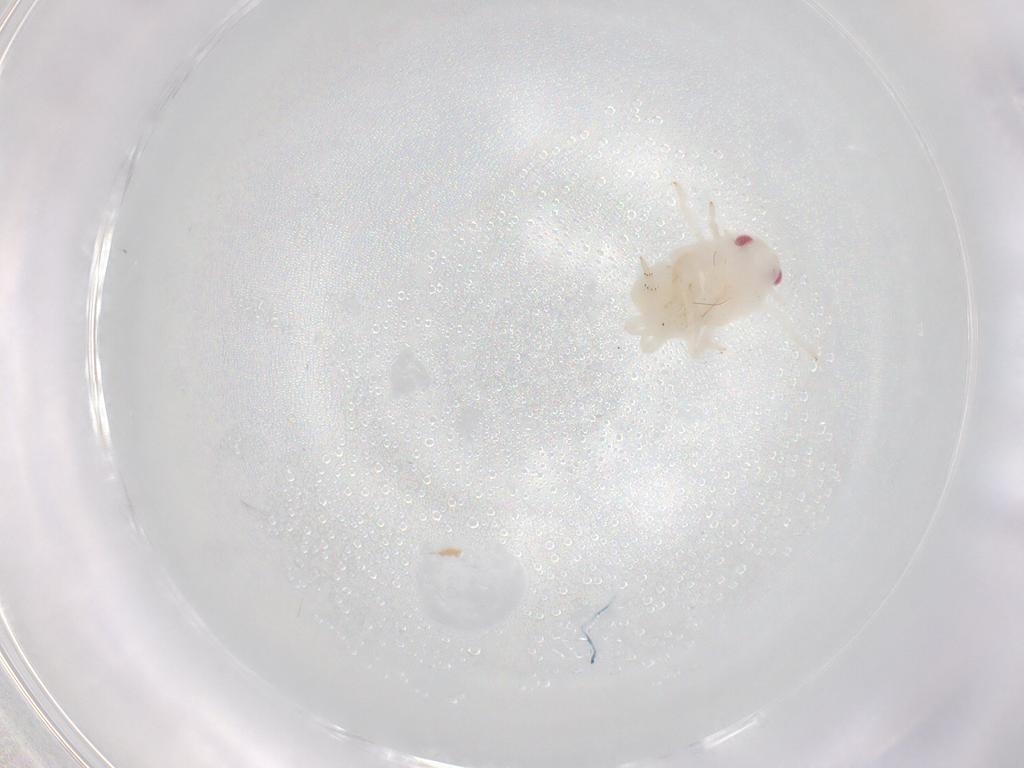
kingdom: Animalia
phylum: Arthropoda
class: Insecta
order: Hemiptera
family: Flatidae
